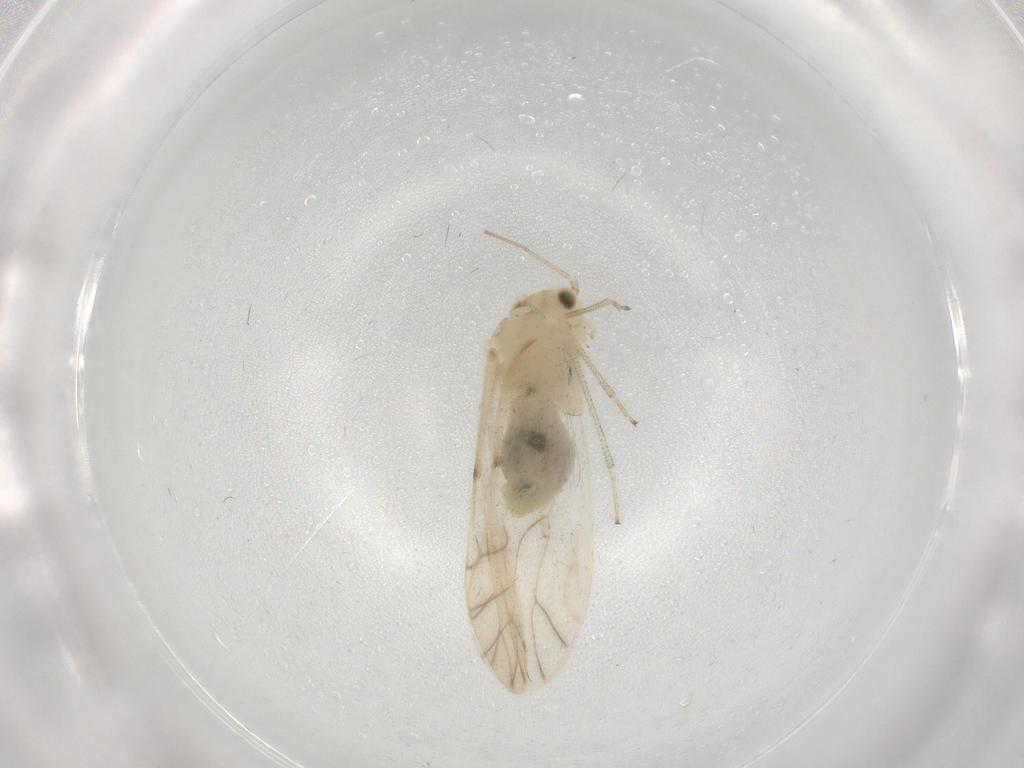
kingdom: Animalia
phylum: Arthropoda
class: Insecta
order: Psocodea
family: Caeciliusidae
